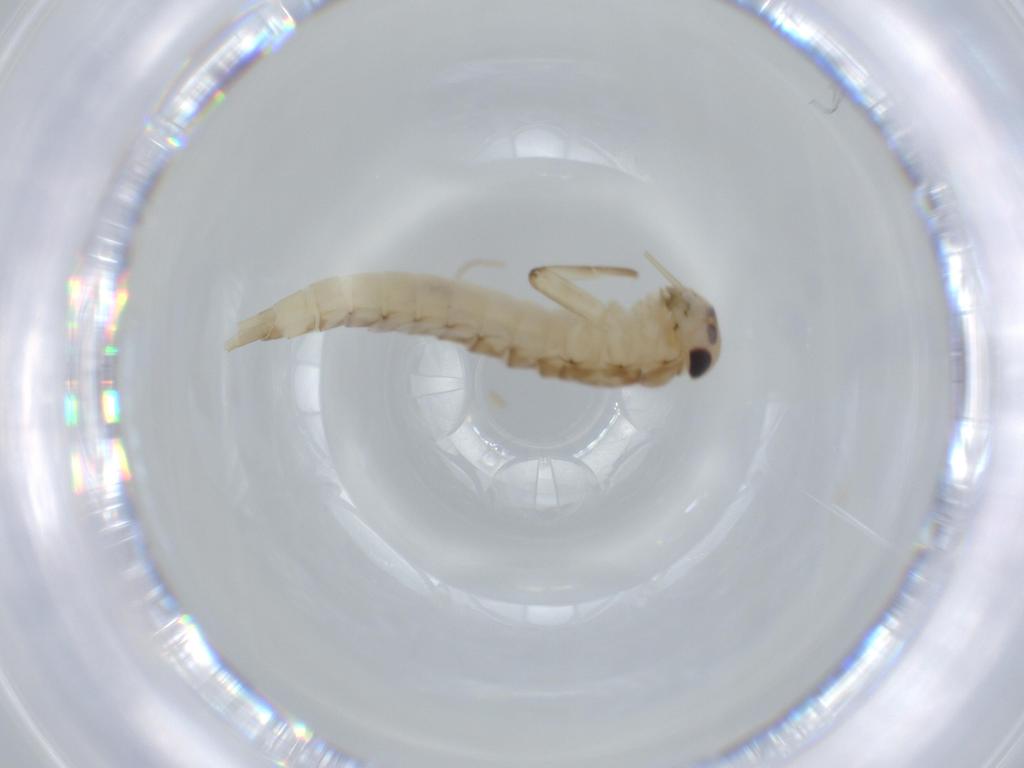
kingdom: Animalia
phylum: Arthropoda
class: Insecta
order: Ephemeroptera
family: Baetidae
